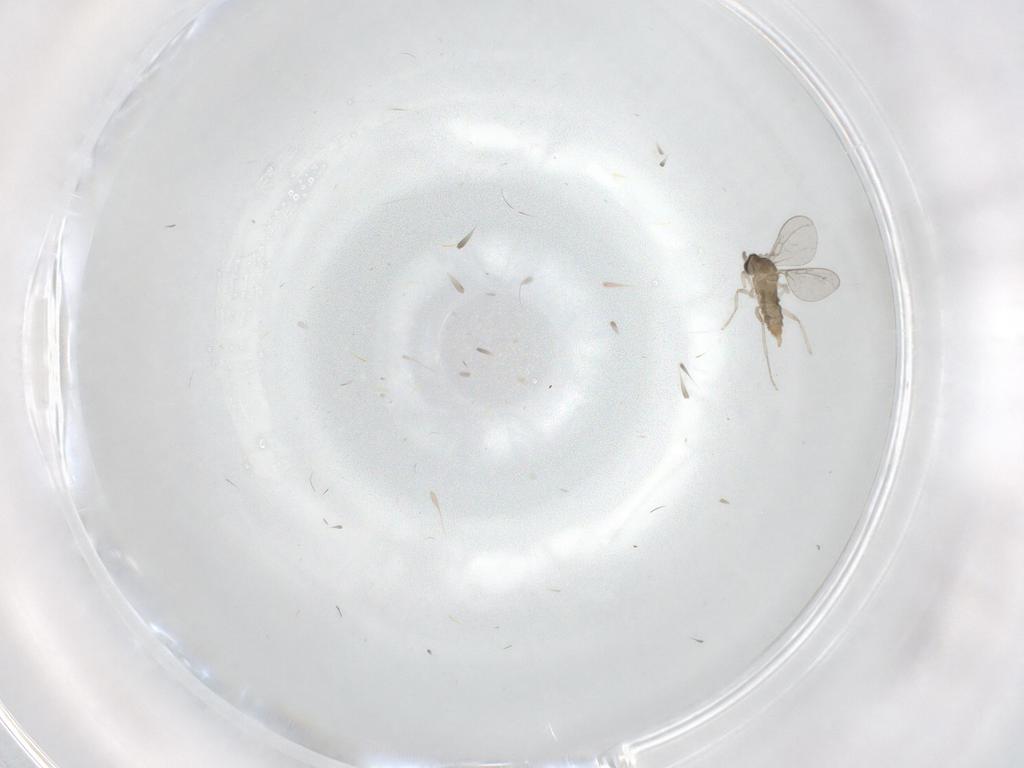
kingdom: Animalia
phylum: Arthropoda
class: Insecta
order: Diptera
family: Cecidomyiidae
